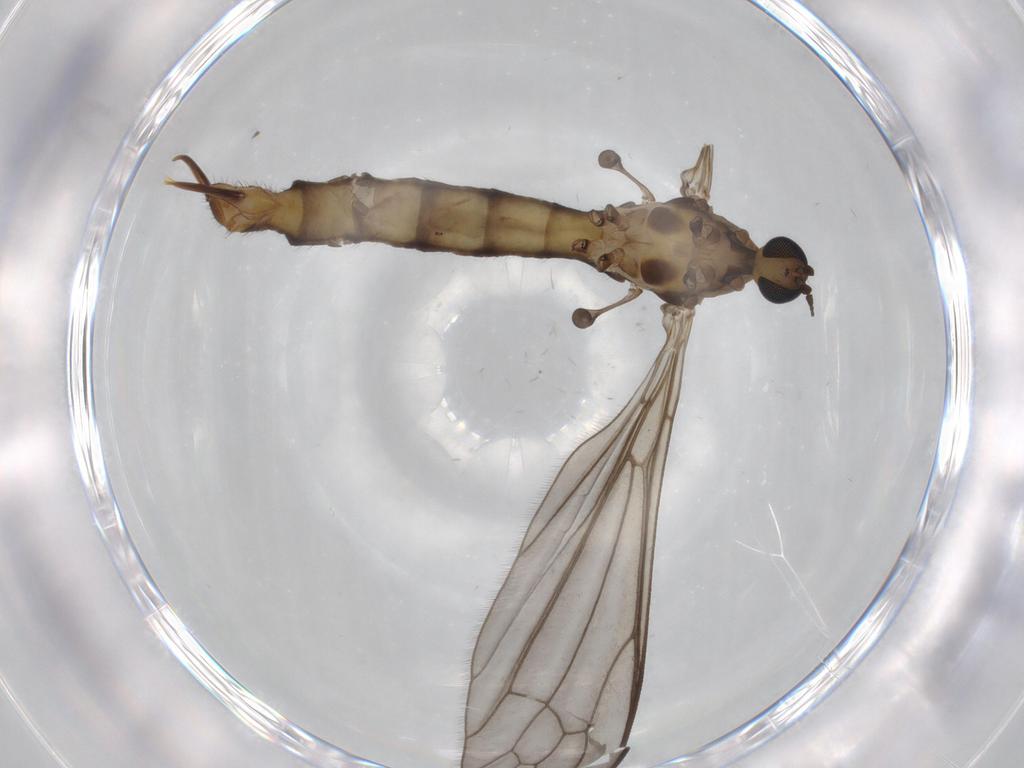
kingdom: Animalia
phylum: Arthropoda
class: Insecta
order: Diptera
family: Limoniidae
